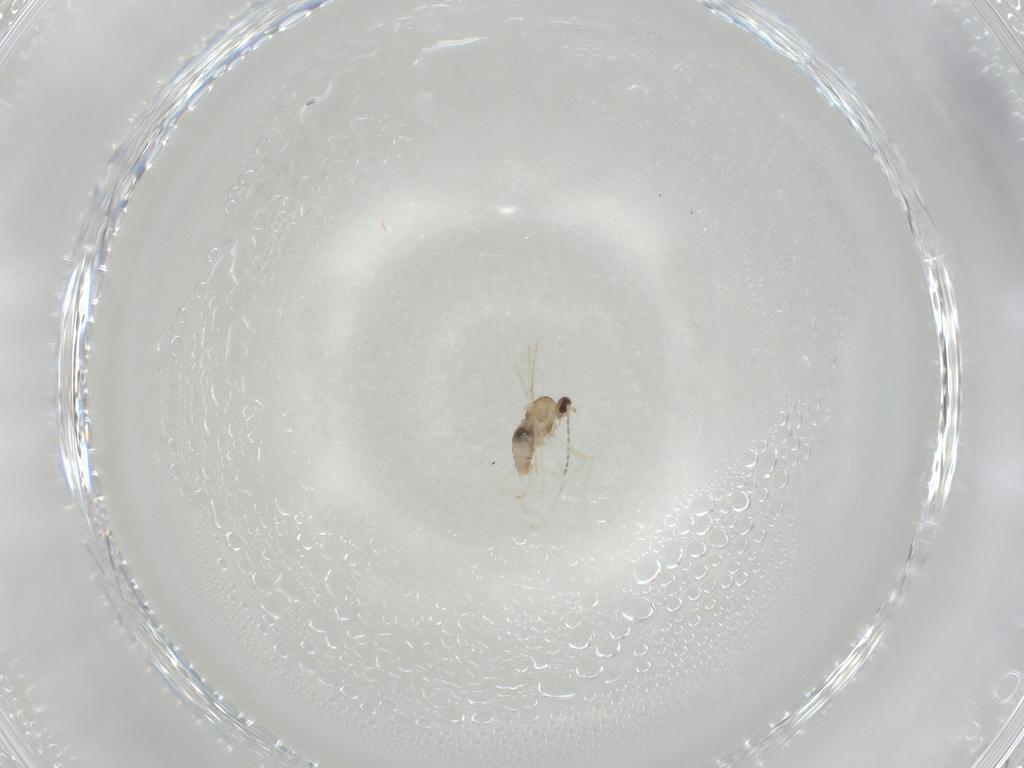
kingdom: Animalia
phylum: Arthropoda
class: Insecta
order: Diptera
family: Cecidomyiidae
